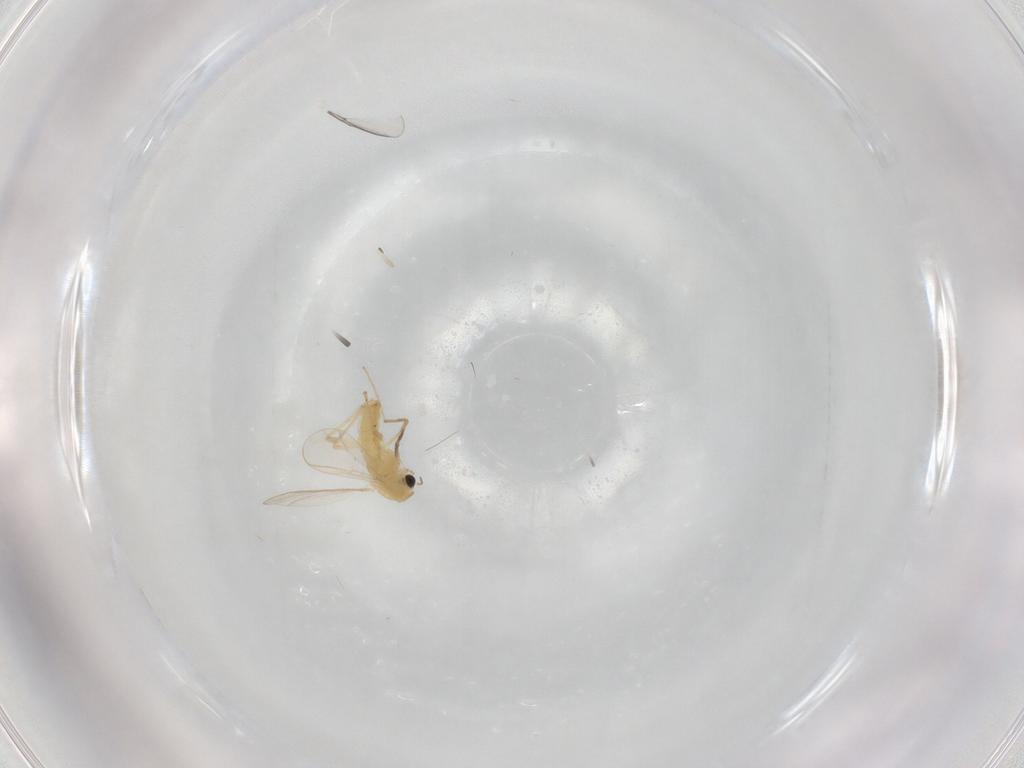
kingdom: Animalia
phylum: Arthropoda
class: Insecta
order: Diptera
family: Chironomidae
